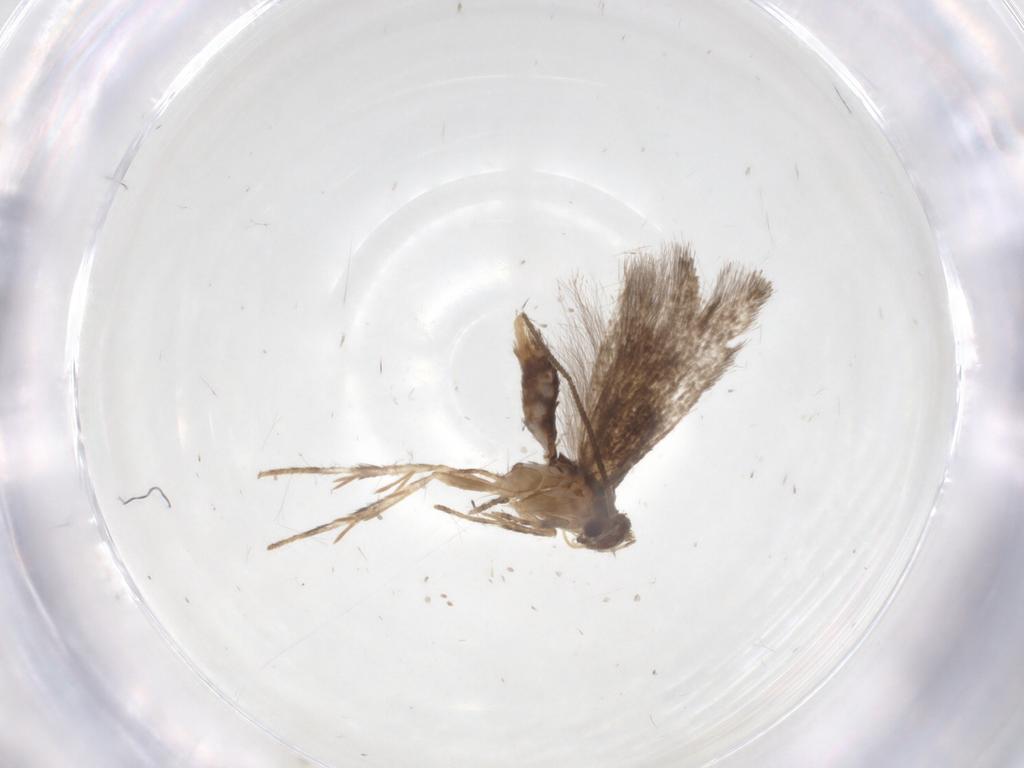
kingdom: Animalia
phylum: Arthropoda
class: Insecta
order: Lepidoptera
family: Elachistidae
